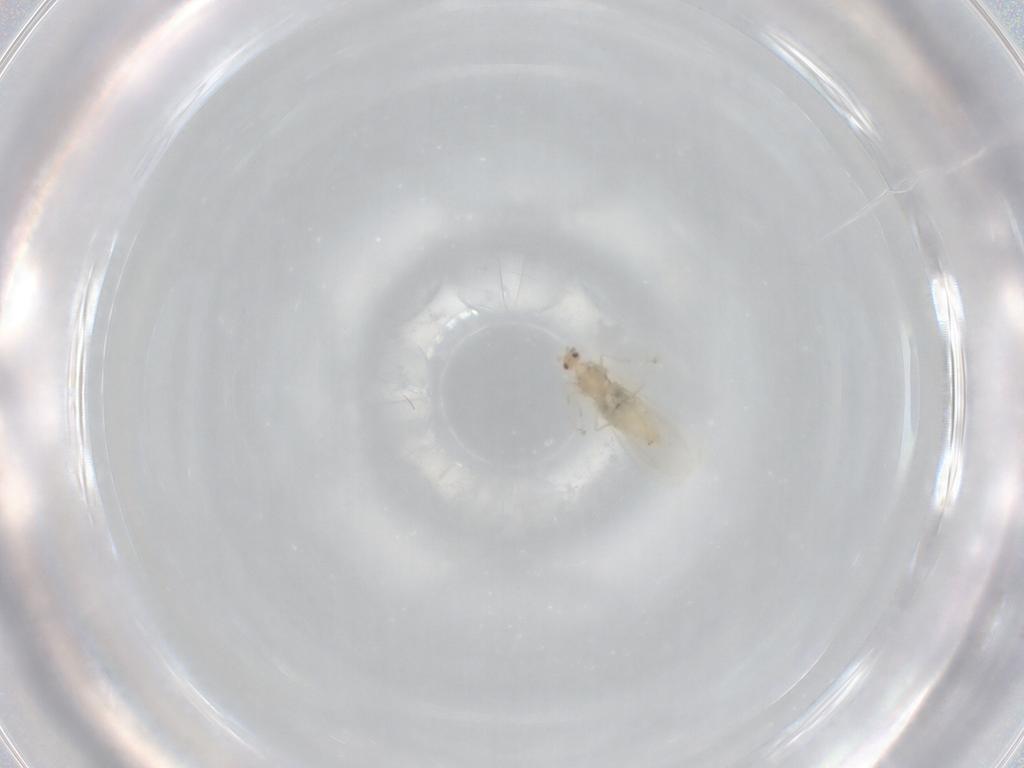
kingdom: Animalia
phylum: Arthropoda
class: Insecta
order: Diptera
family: Cecidomyiidae
